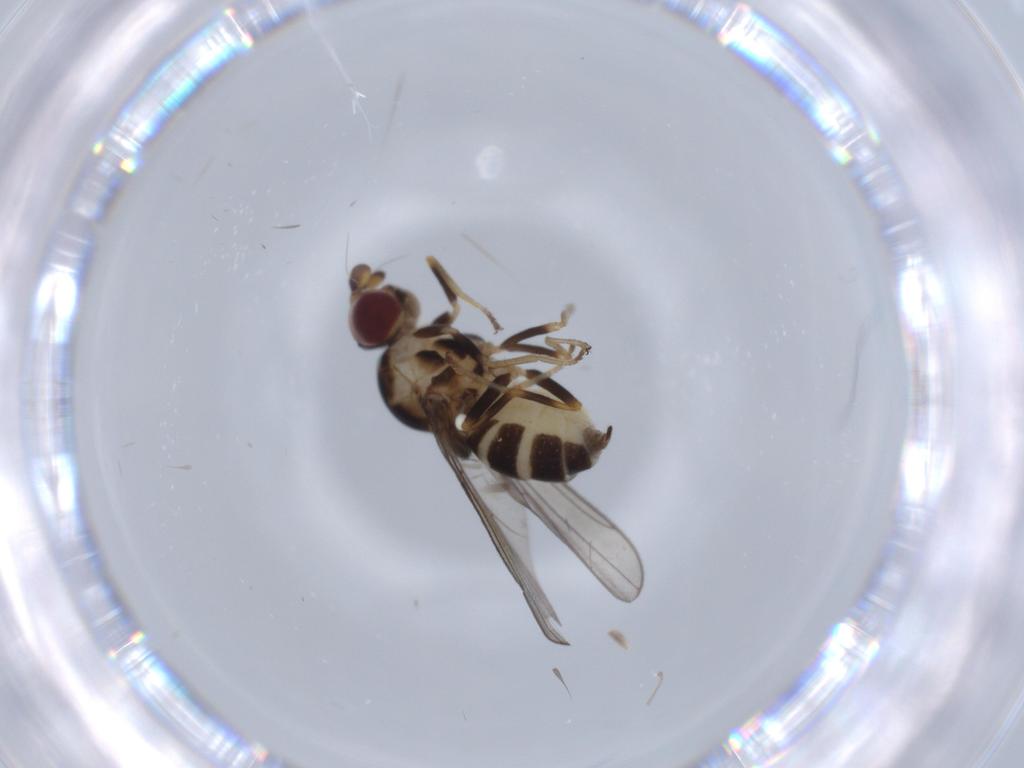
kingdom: Animalia
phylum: Arthropoda
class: Insecta
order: Diptera
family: Chloropidae
